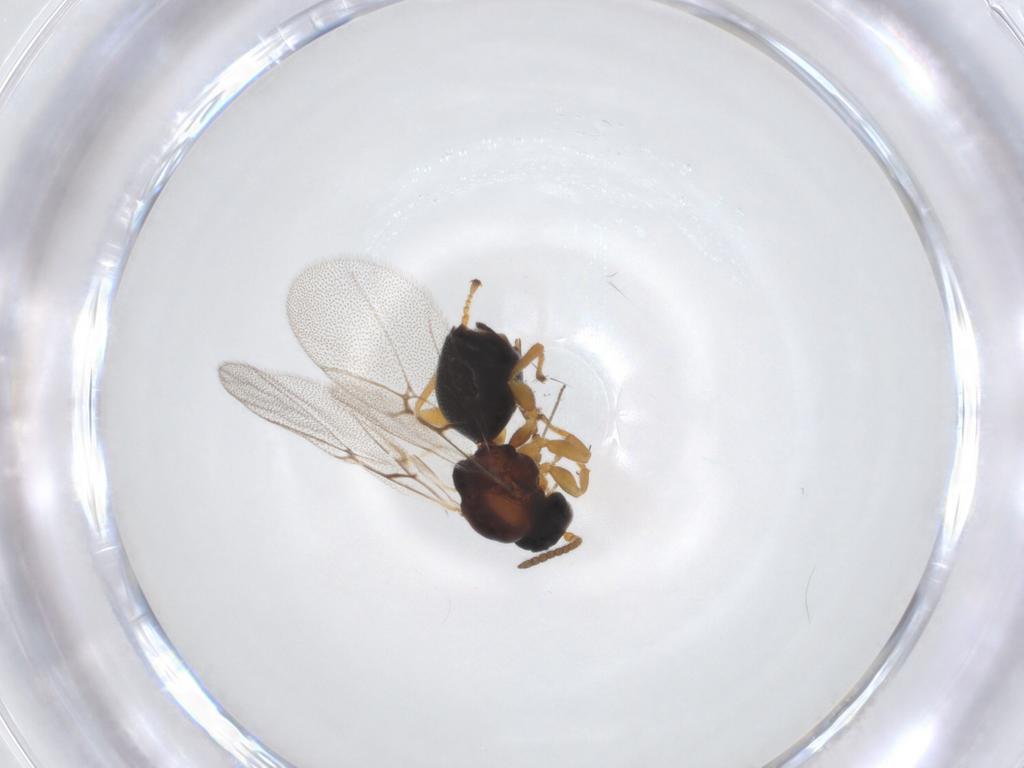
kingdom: Animalia
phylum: Arthropoda
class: Insecta
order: Hymenoptera
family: Cynipidae
